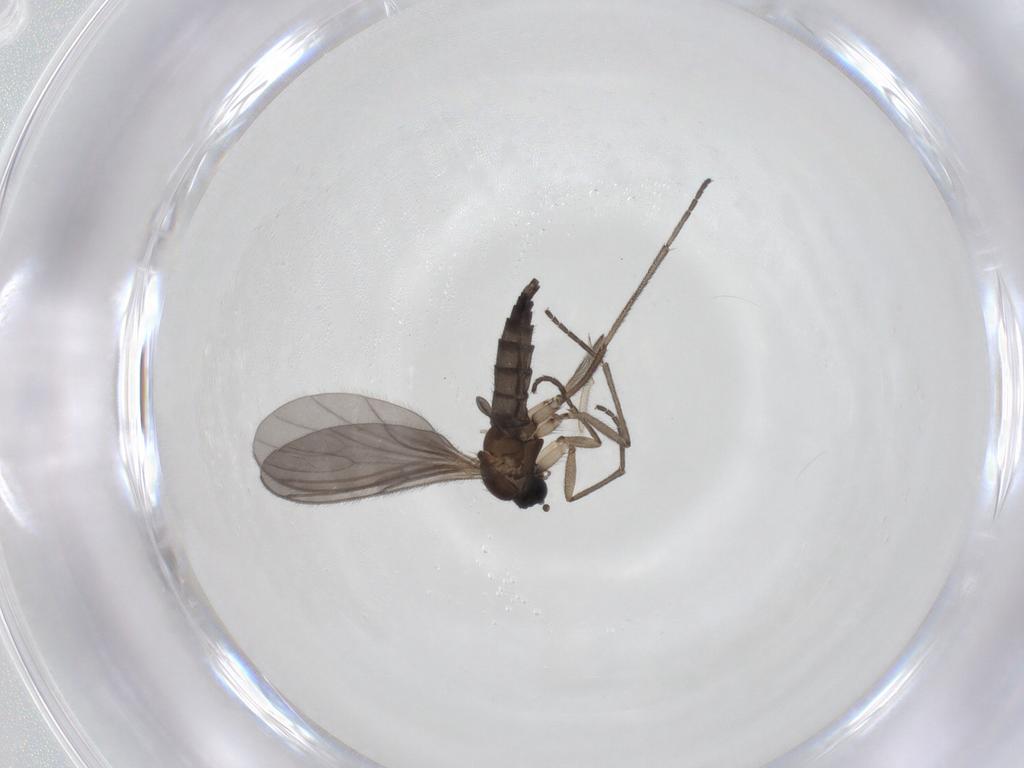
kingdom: Animalia
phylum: Arthropoda
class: Insecta
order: Diptera
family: Sciaridae
